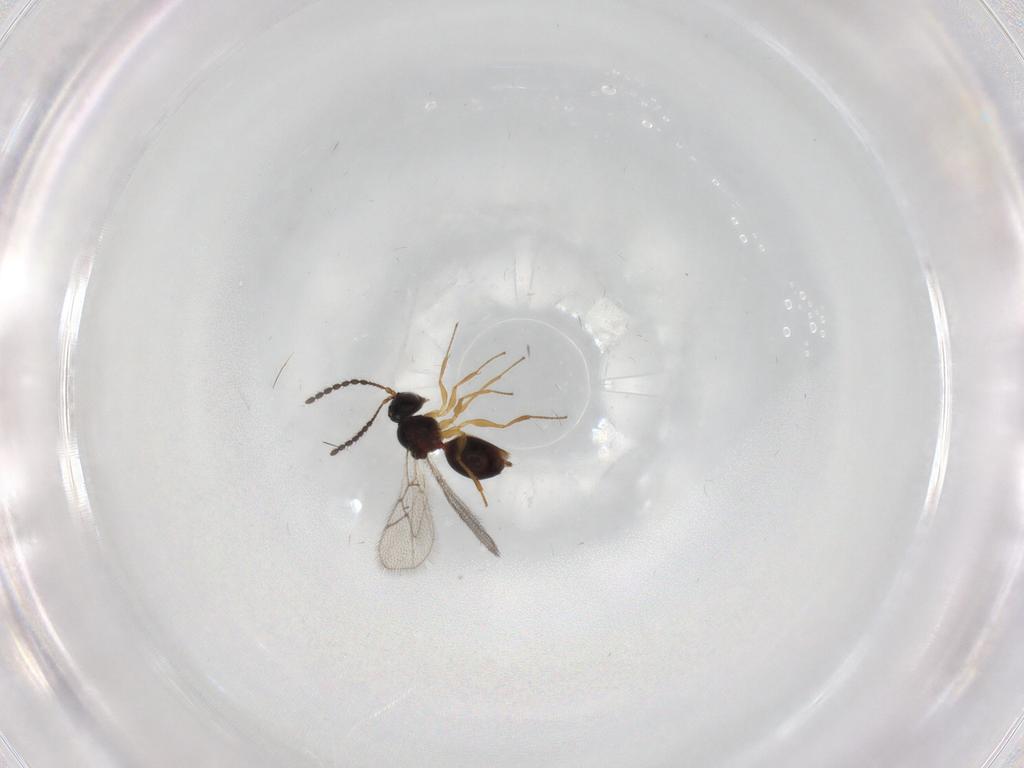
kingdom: Animalia
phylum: Arthropoda
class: Insecta
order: Hymenoptera
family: Figitidae
